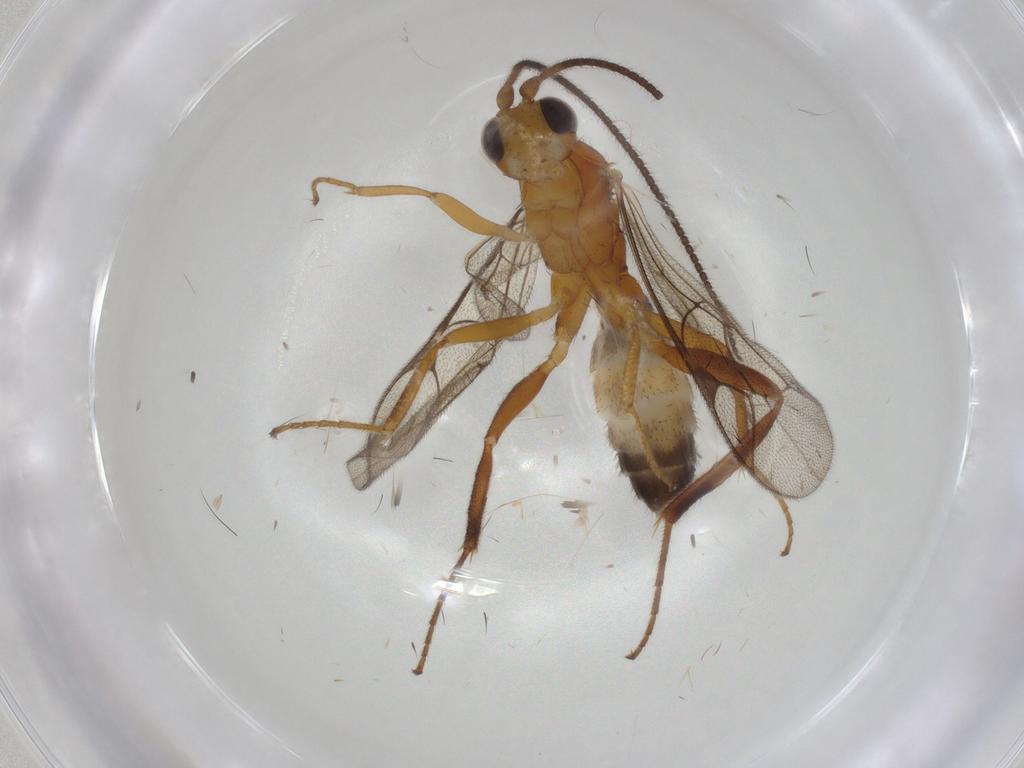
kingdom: Animalia
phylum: Arthropoda
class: Insecta
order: Hymenoptera
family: Ichneumonidae
